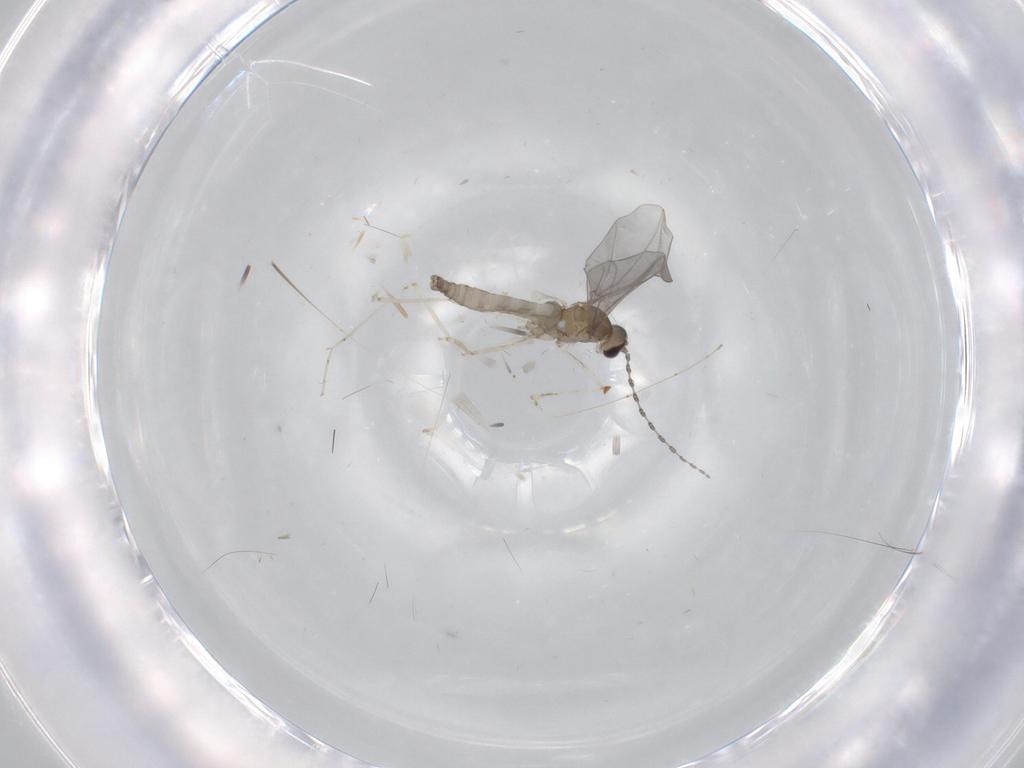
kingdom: Animalia
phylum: Arthropoda
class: Insecta
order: Diptera
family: Cecidomyiidae
